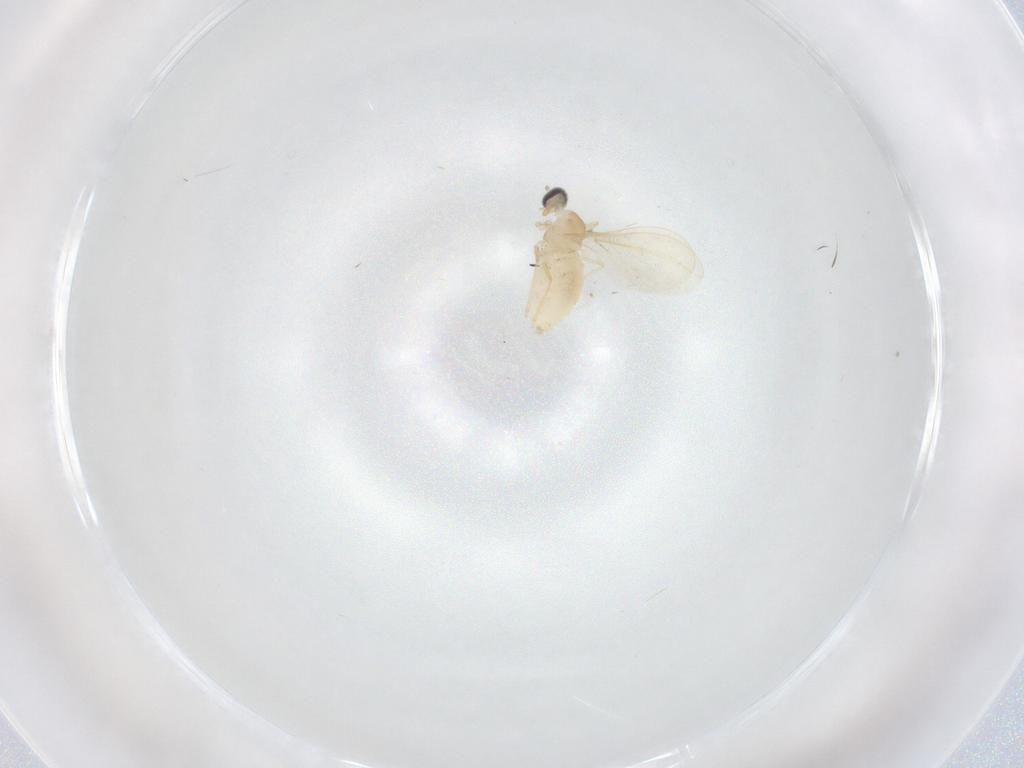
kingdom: Animalia
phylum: Arthropoda
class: Insecta
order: Diptera
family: Cecidomyiidae
